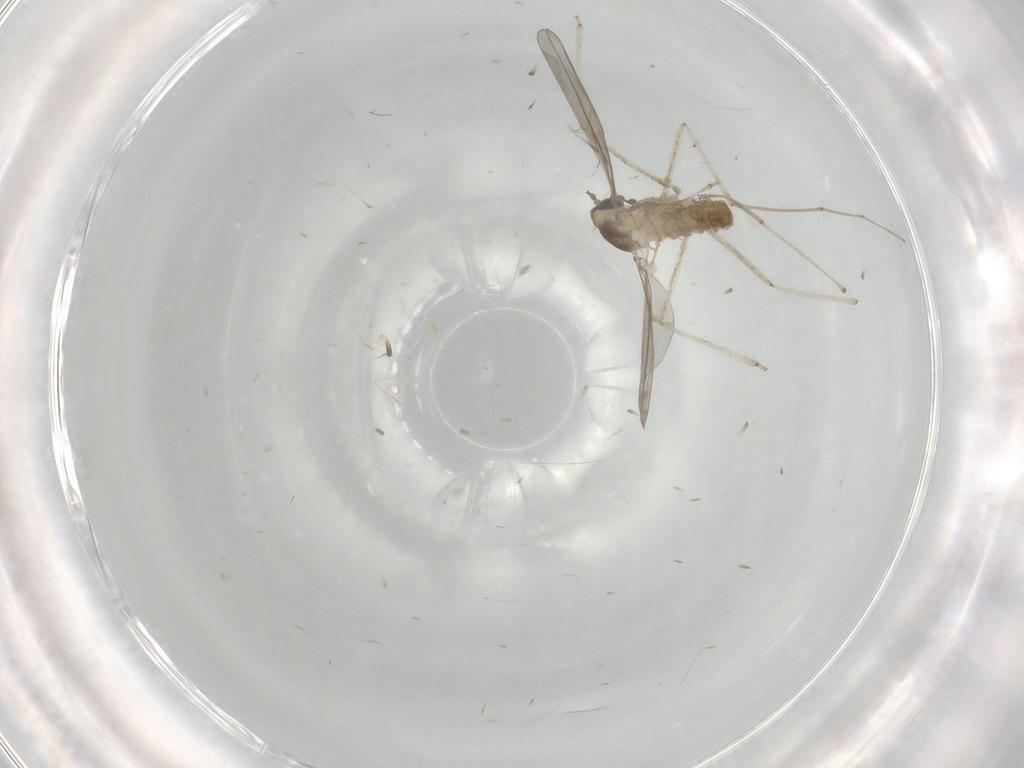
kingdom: Animalia
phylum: Arthropoda
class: Insecta
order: Diptera
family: Cecidomyiidae
